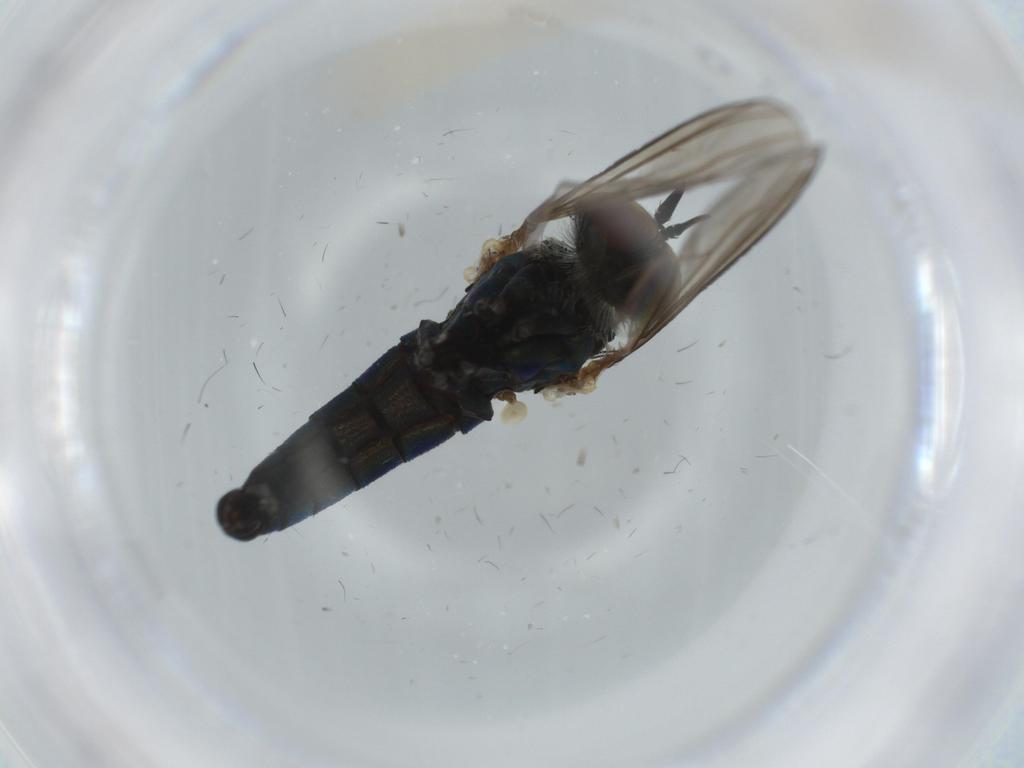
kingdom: Animalia
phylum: Arthropoda
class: Insecta
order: Diptera
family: Dolichopodidae
